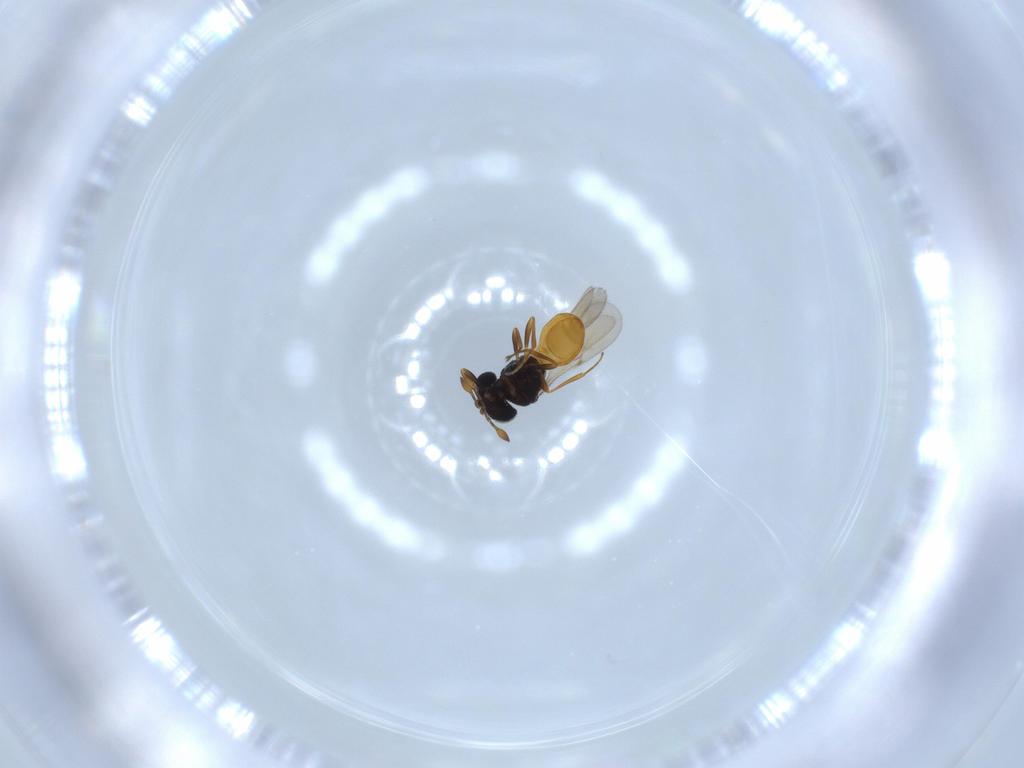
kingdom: Animalia
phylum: Arthropoda
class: Insecta
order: Hymenoptera
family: Scelionidae
